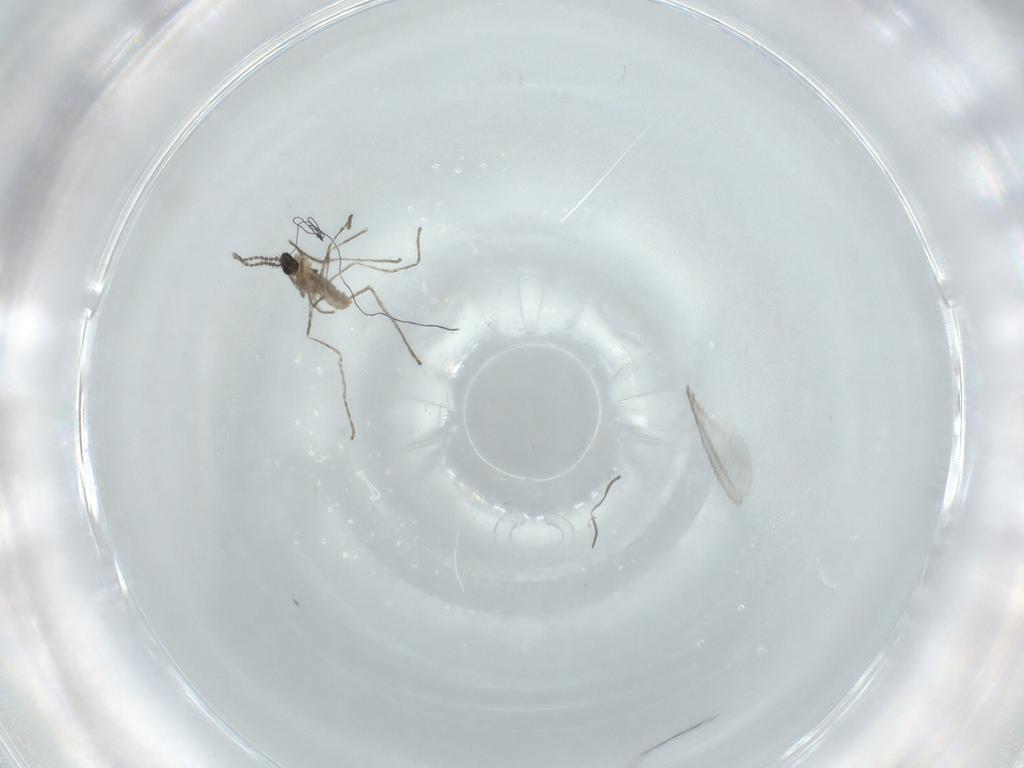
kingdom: Animalia
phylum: Arthropoda
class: Insecta
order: Diptera
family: Cecidomyiidae
